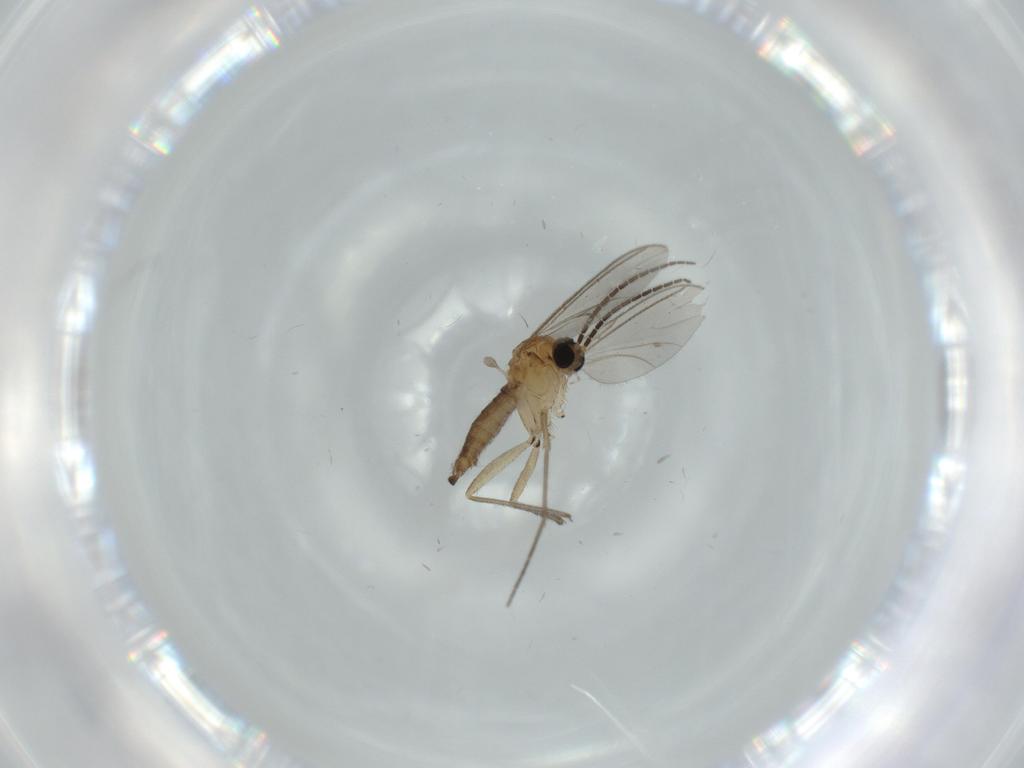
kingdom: Animalia
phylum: Arthropoda
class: Insecta
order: Diptera
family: Sciaridae
